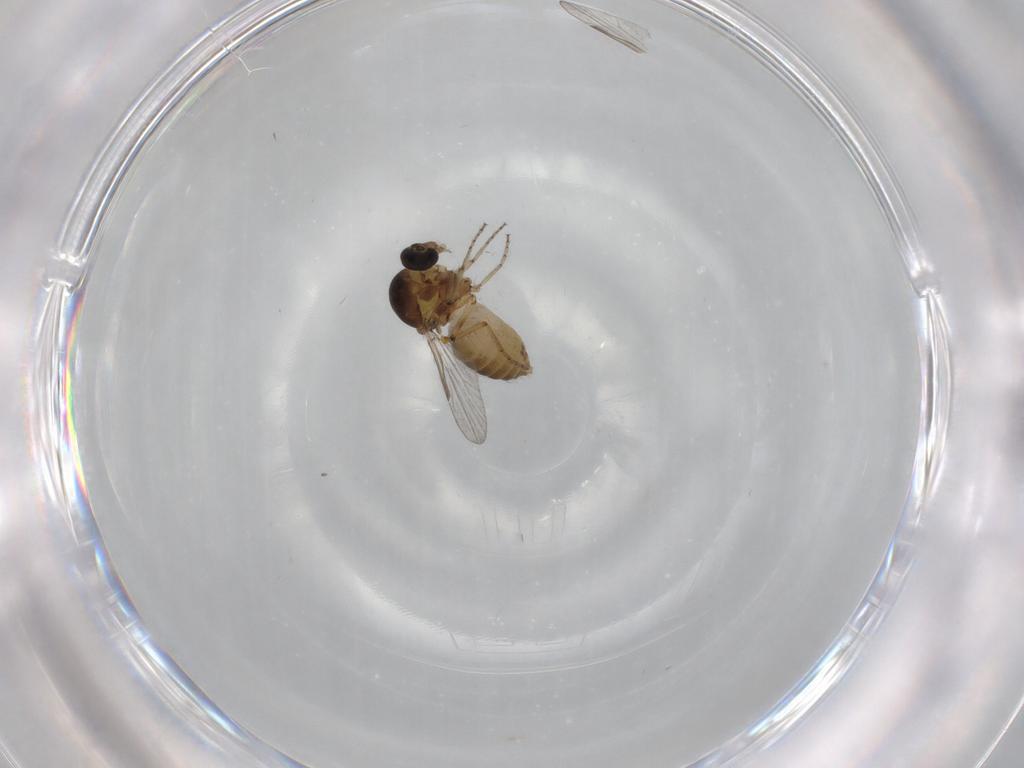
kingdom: Animalia
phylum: Arthropoda
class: Insecta
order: Diptera
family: Ceratopogonidae
